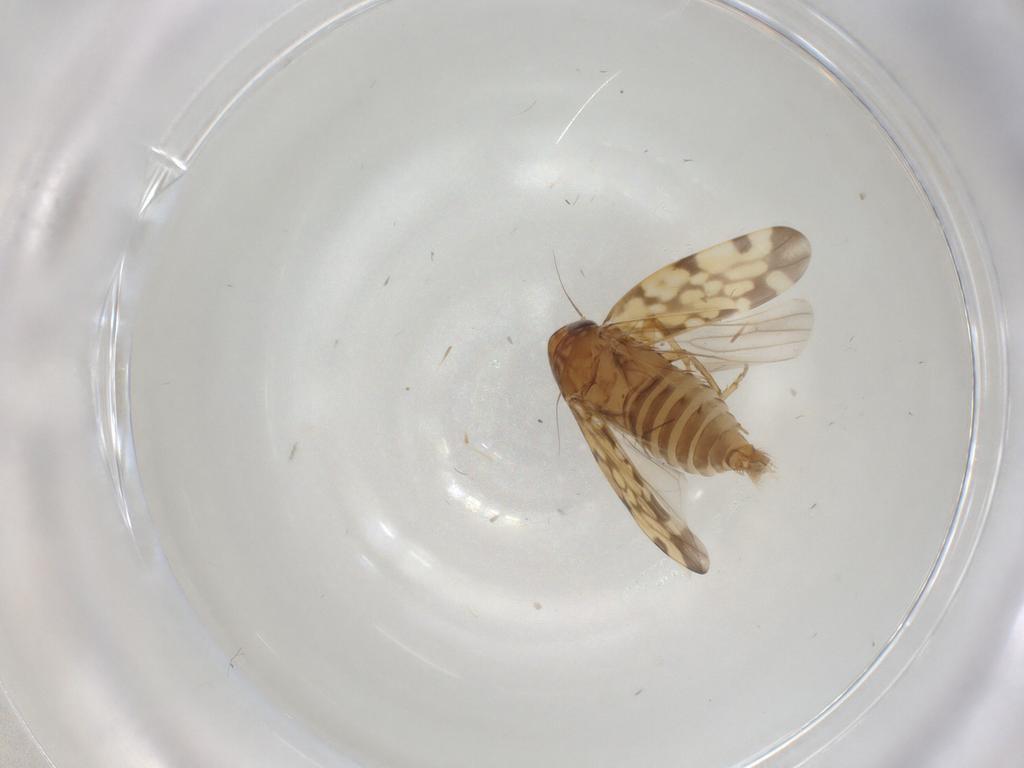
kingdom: Animalia
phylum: Arthropoda
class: Insecta
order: Hemiptera
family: Cicadellidae
